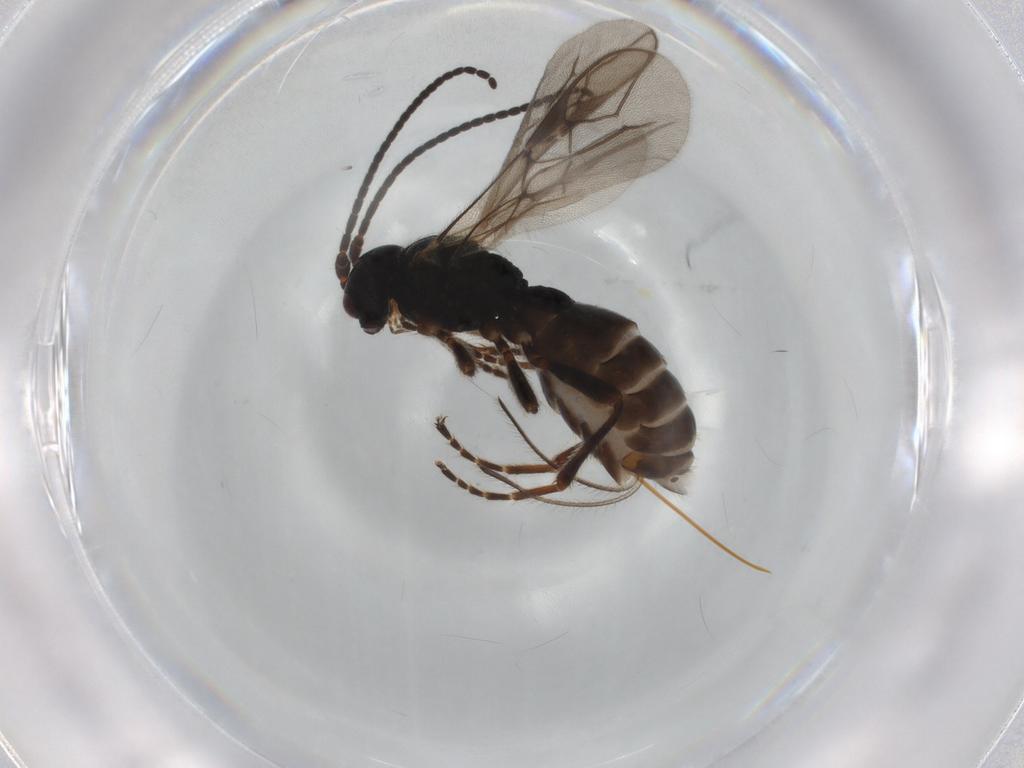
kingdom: Animalia
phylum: Arthropoda
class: Insecta
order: Hymenoptera
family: Braconidae
